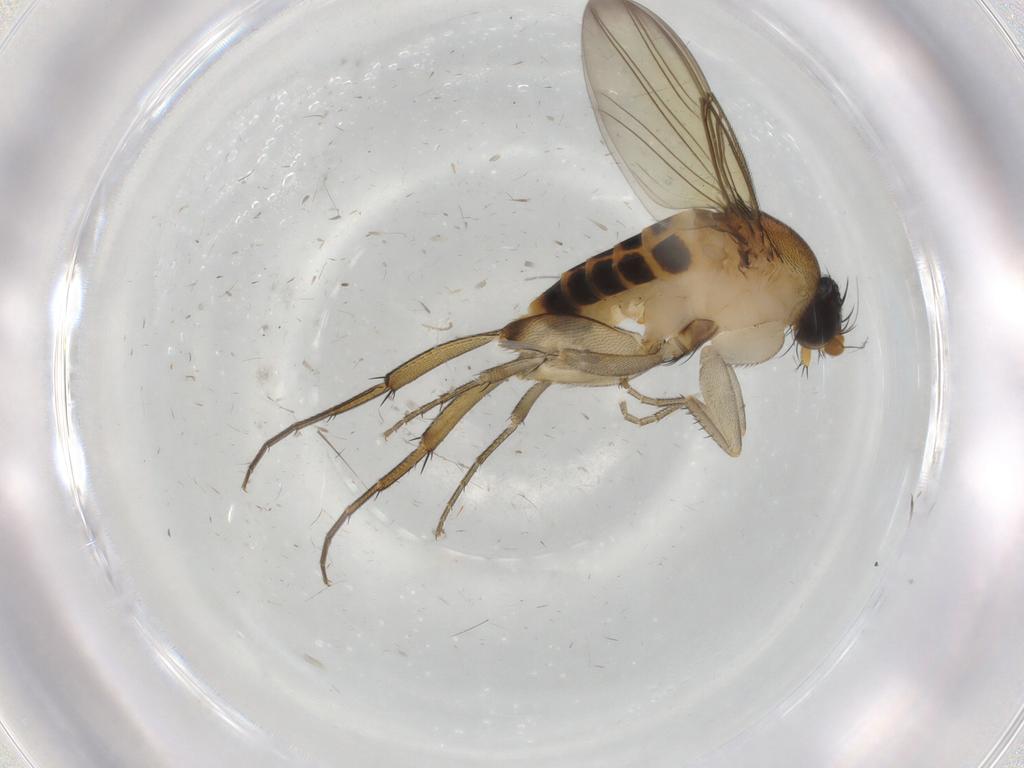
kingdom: Animalia
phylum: Arthropoda
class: Insecta
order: Diptera
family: Phoridae
